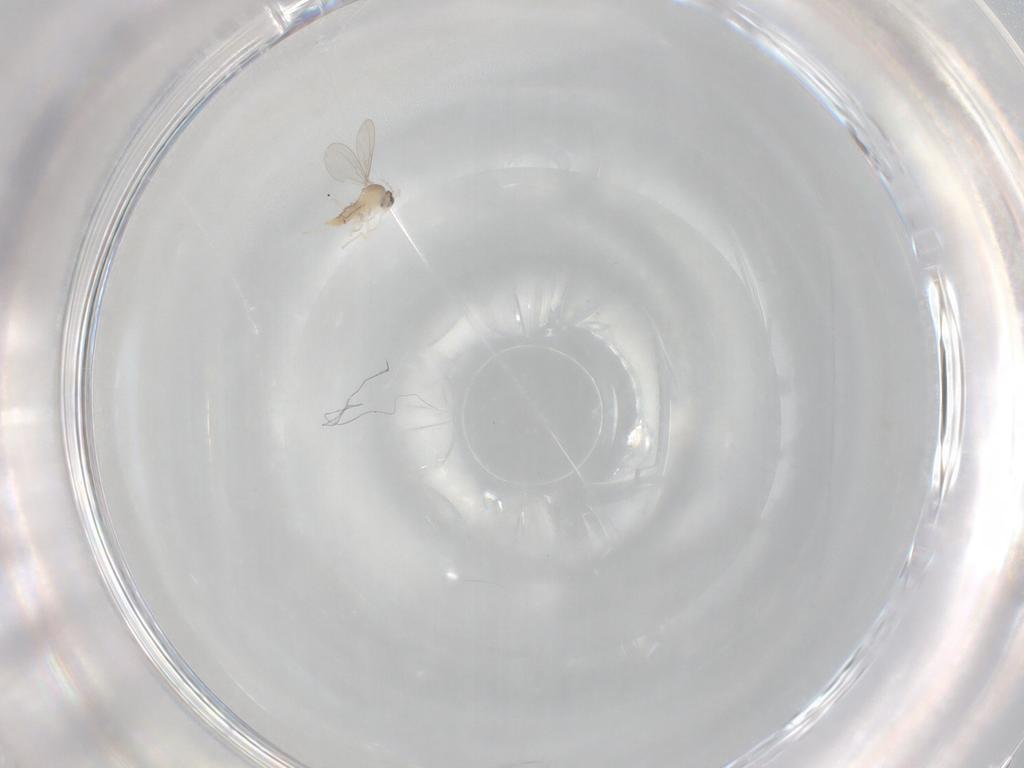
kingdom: Animalia
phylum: Arthropoda
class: Insecta
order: Diptera
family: Cecidomyiidae
